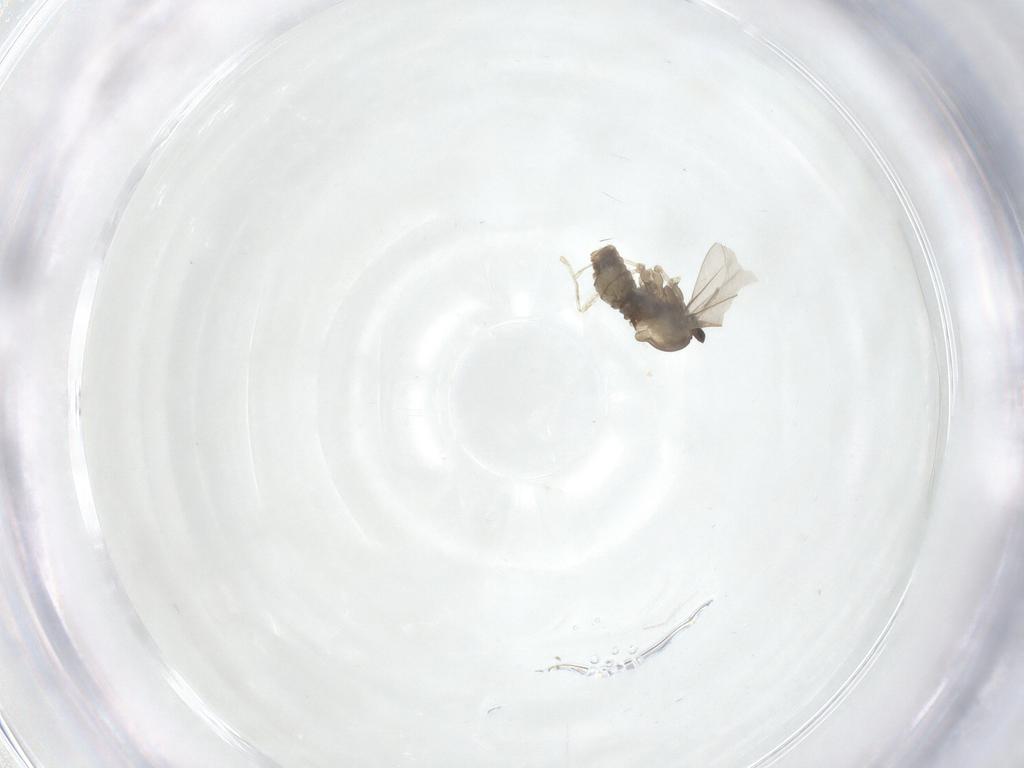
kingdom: Animalia
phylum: Arthropoda
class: Insecta
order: Diptera
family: Cecidomyiidae
